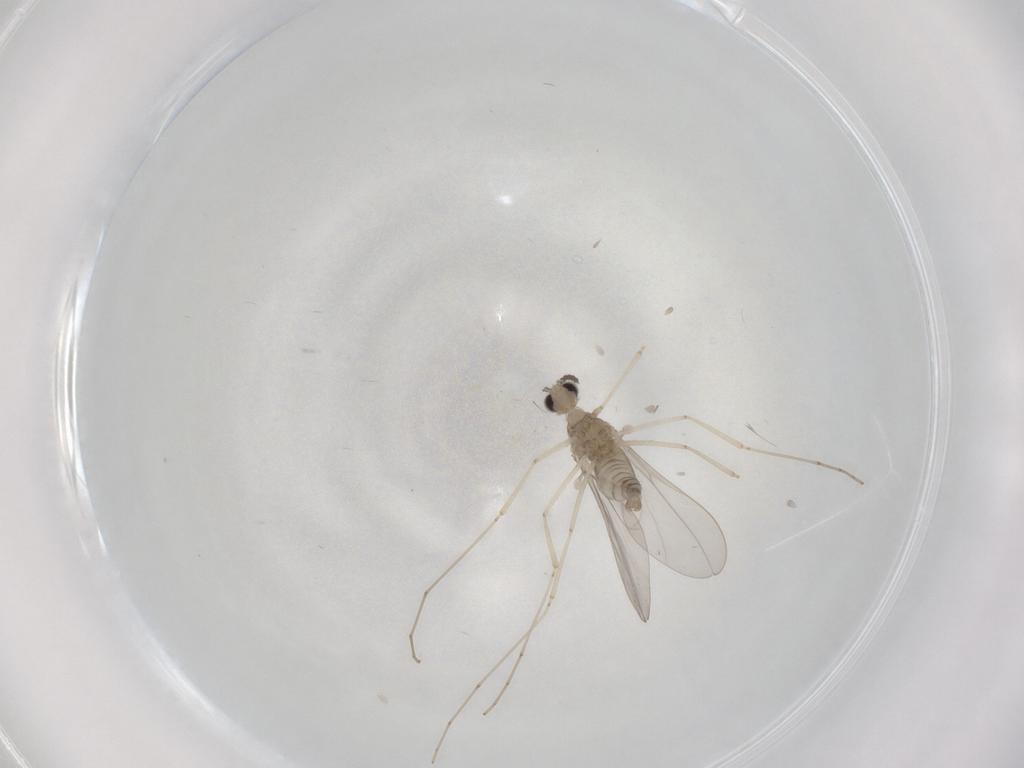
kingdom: Animalia
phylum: Arthropoda
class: Insecta
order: Diptera
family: Cecidomyiidae
